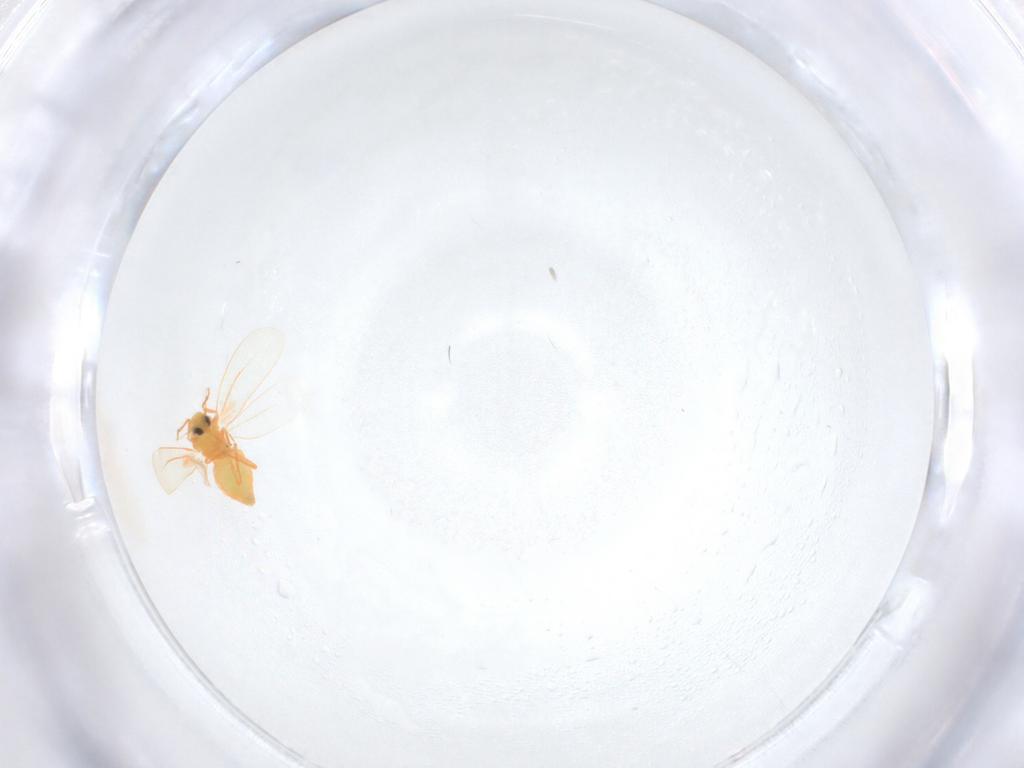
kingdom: Animalia
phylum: Arthropoda
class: Insecta
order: Hemiptera
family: Aleyrodidae
